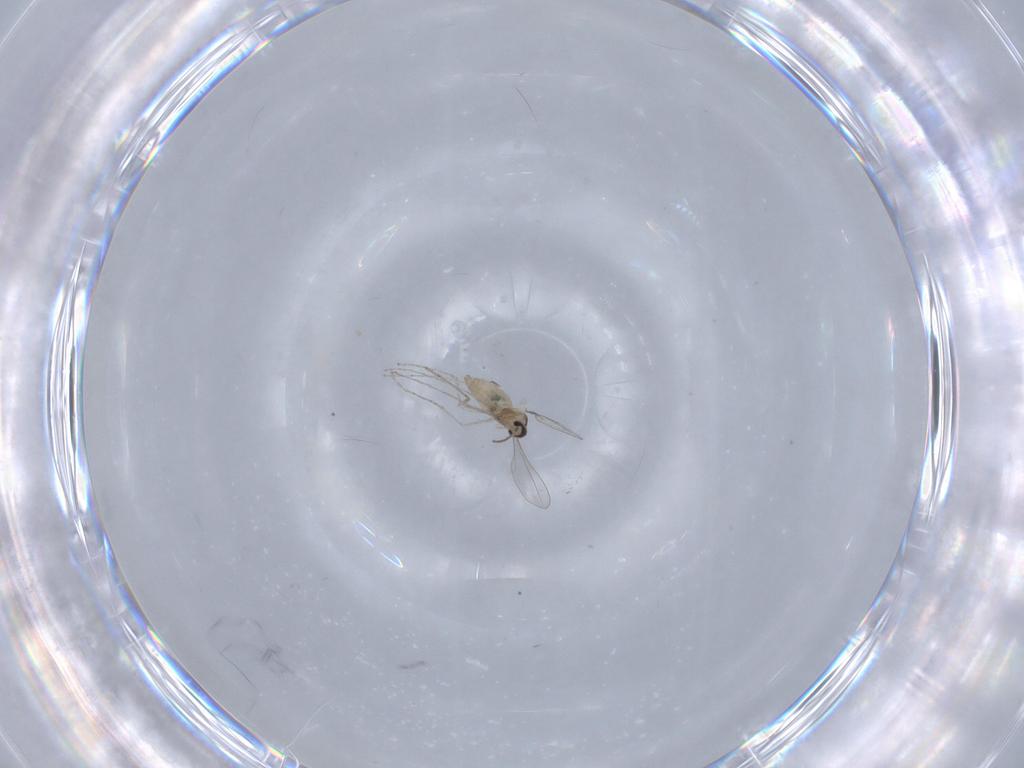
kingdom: Animalia
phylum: Arthropoda
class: Insecta
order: Diptera
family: Cecidomyiidae
